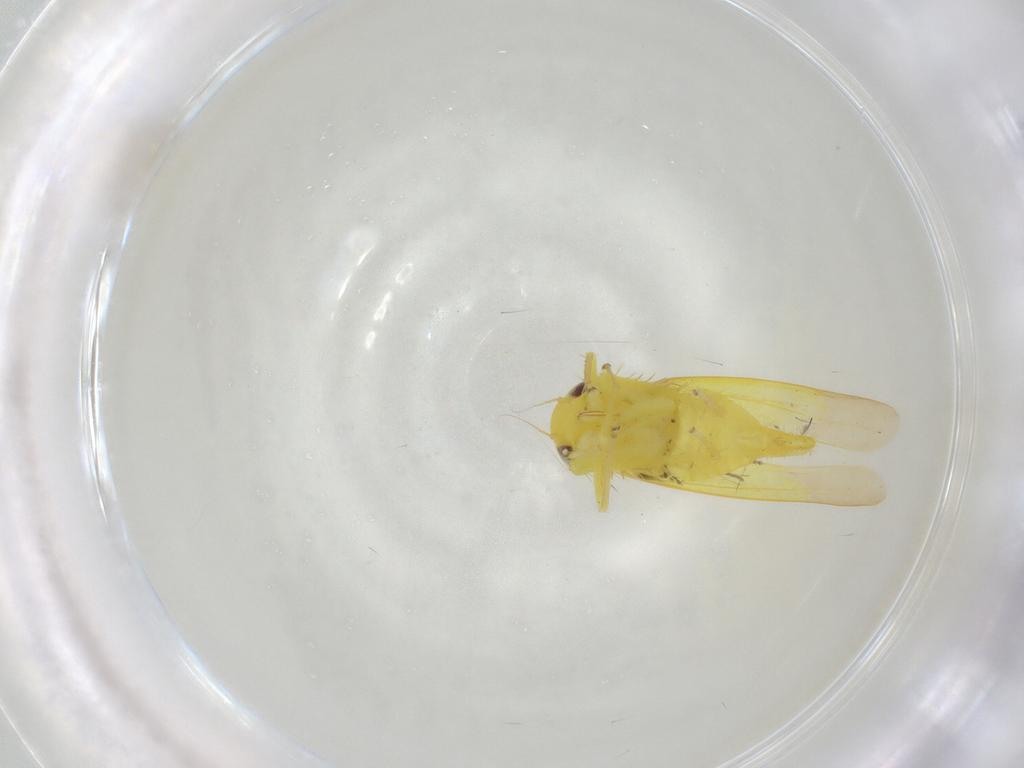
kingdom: Animalia
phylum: Arthropoda
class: Insecta
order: Hemiptera
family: Cicadellidae
